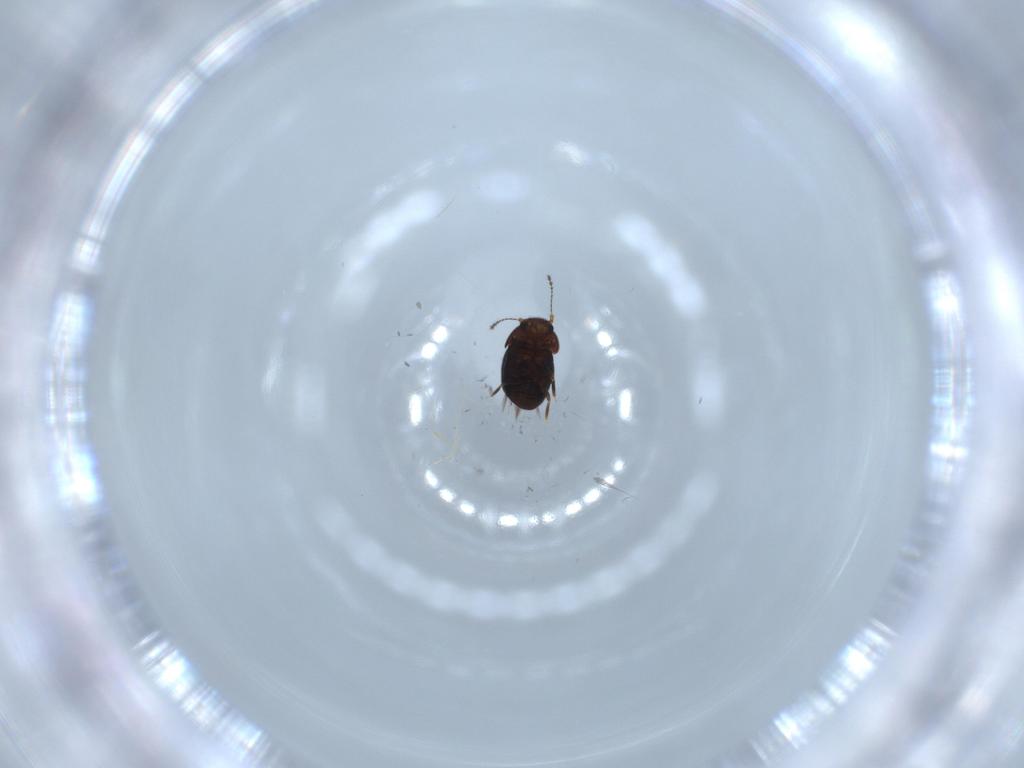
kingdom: Animalia
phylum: Arthropoda
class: Insecta
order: Coleoptera
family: Ptiliidae
